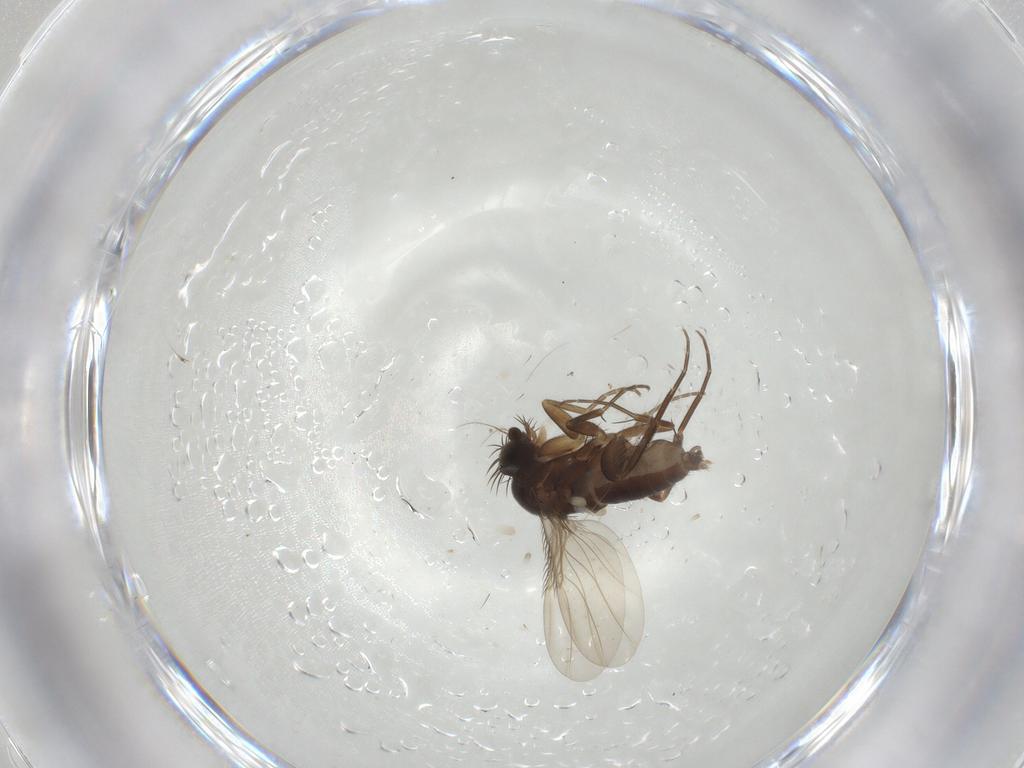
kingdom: Animalia
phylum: Arthropoda
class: Insecta
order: Diptera
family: Phoridae
